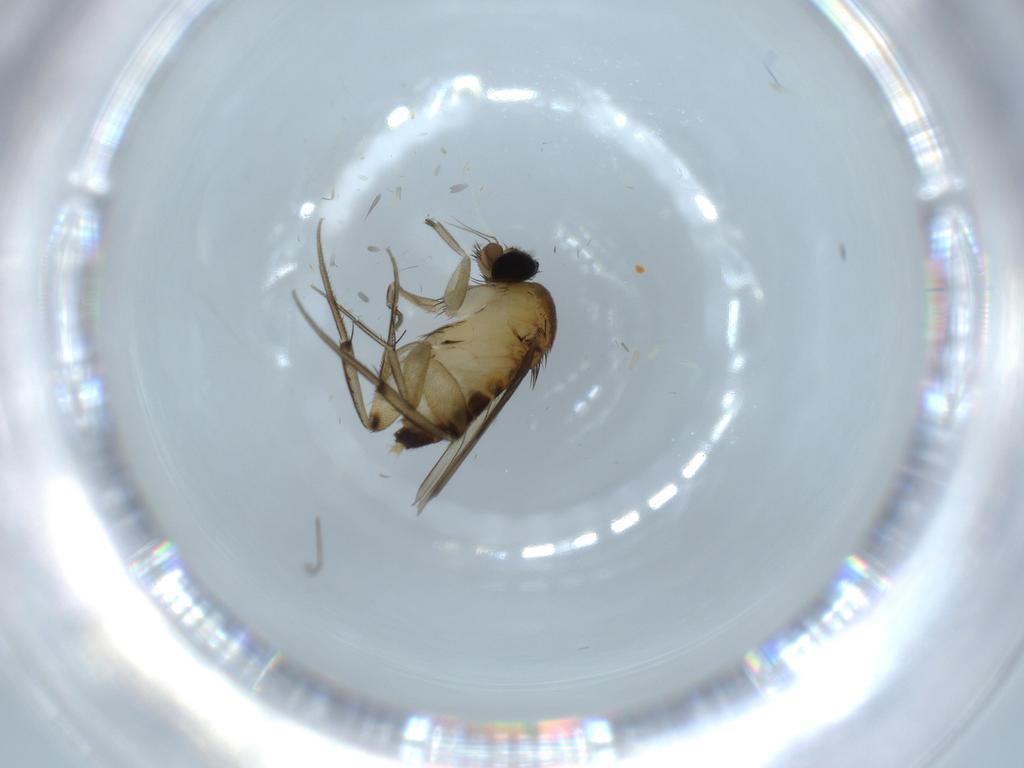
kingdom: Animalia
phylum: Arthropoda
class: Insecta
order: Diptera
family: Phoridae
